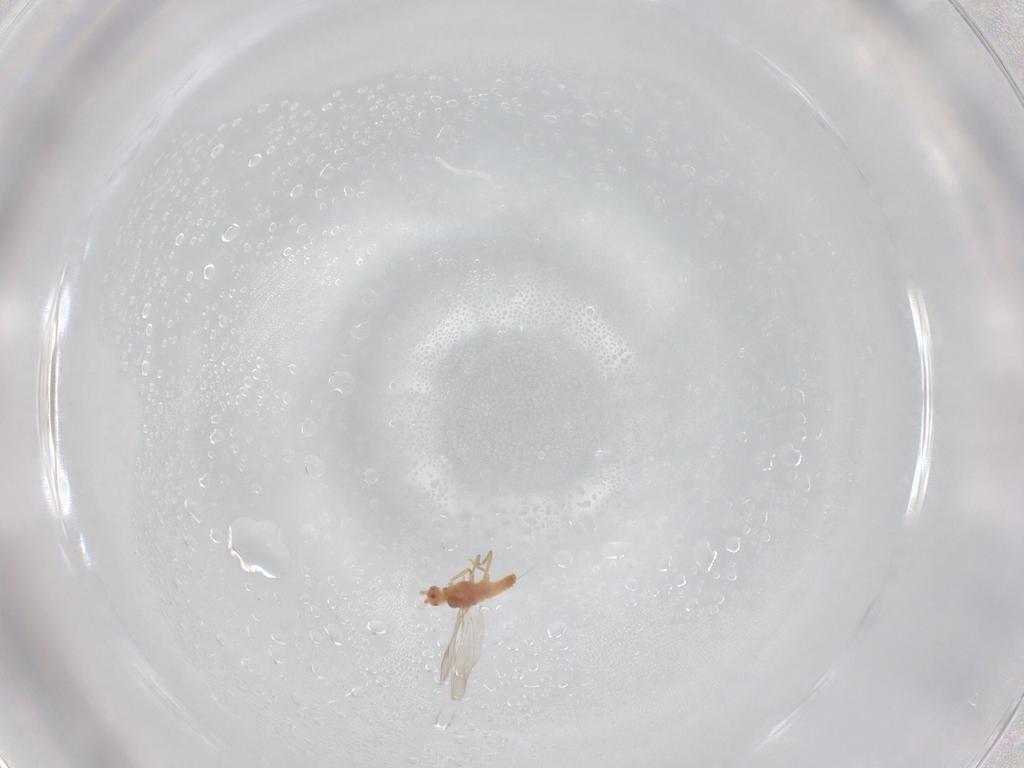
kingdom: Animalia
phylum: Arthropoda
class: Insecta
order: Hemiptera
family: Coccoidea_incertae_sedis
